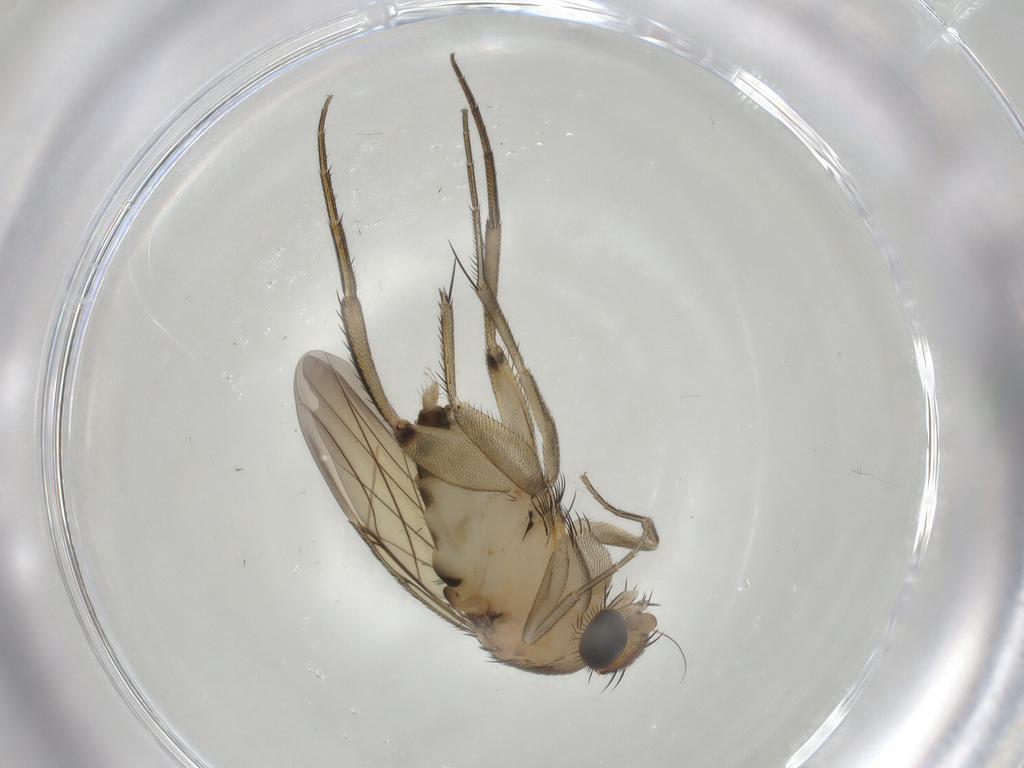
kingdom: Animalia
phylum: Arthropoda
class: Insecta
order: Diptera
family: Phoridae
